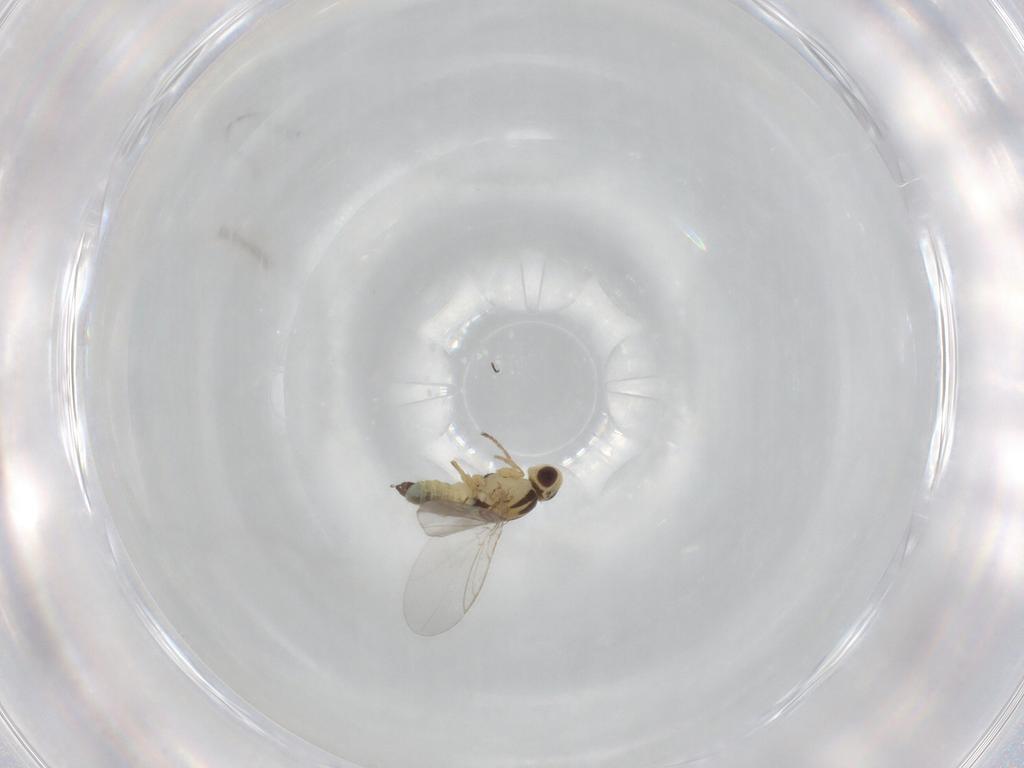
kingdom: Animalia
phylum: Arthropoda
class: Insecta
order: Diptera
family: Agromyzidae
